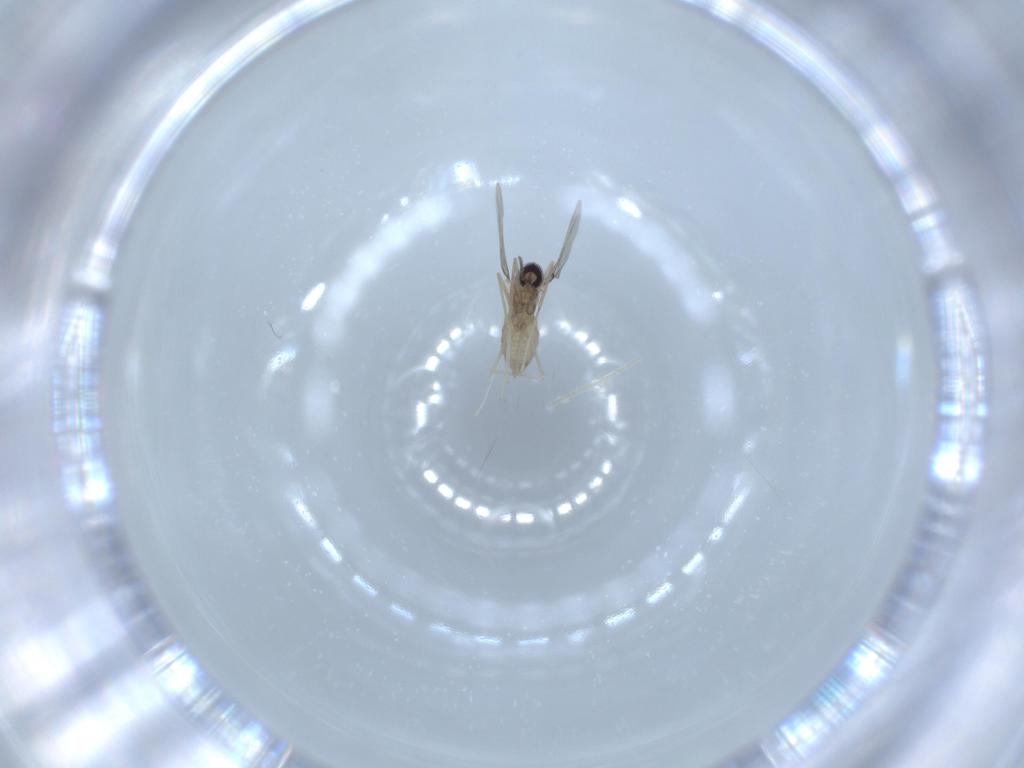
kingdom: Animalia
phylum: Arthropoda
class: Insecta
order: Diptera
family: Cecidomyiidae
